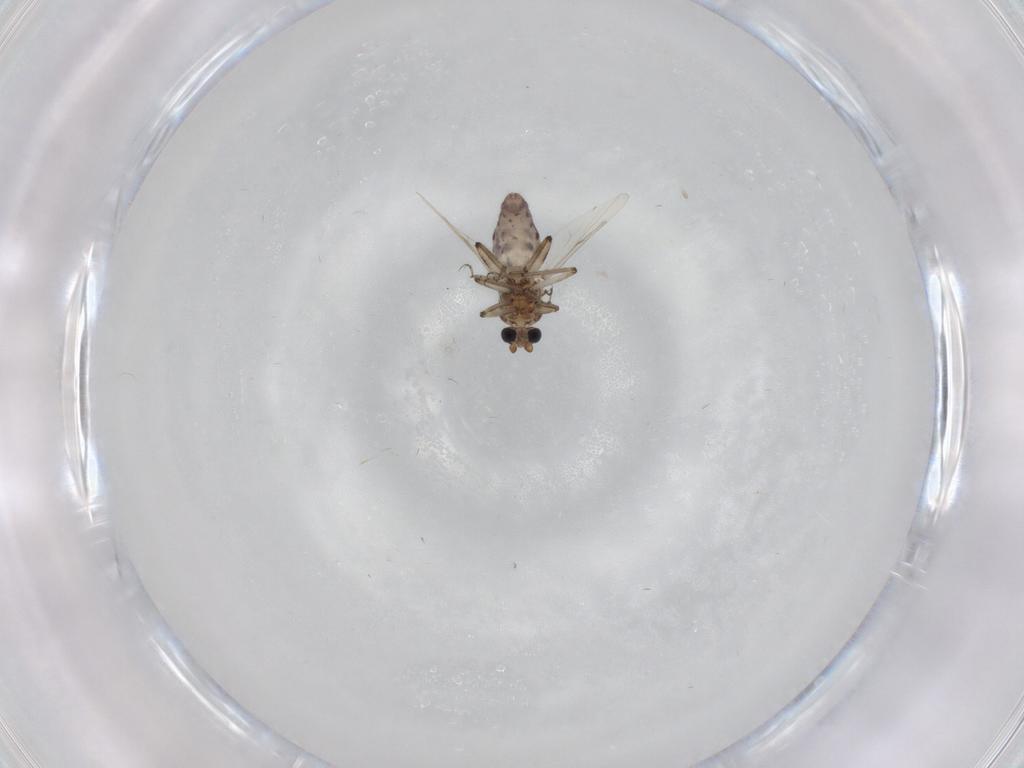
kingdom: Animalia
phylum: Arthropoda
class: Insecta
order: Diptera
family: Ceratopogonidae
